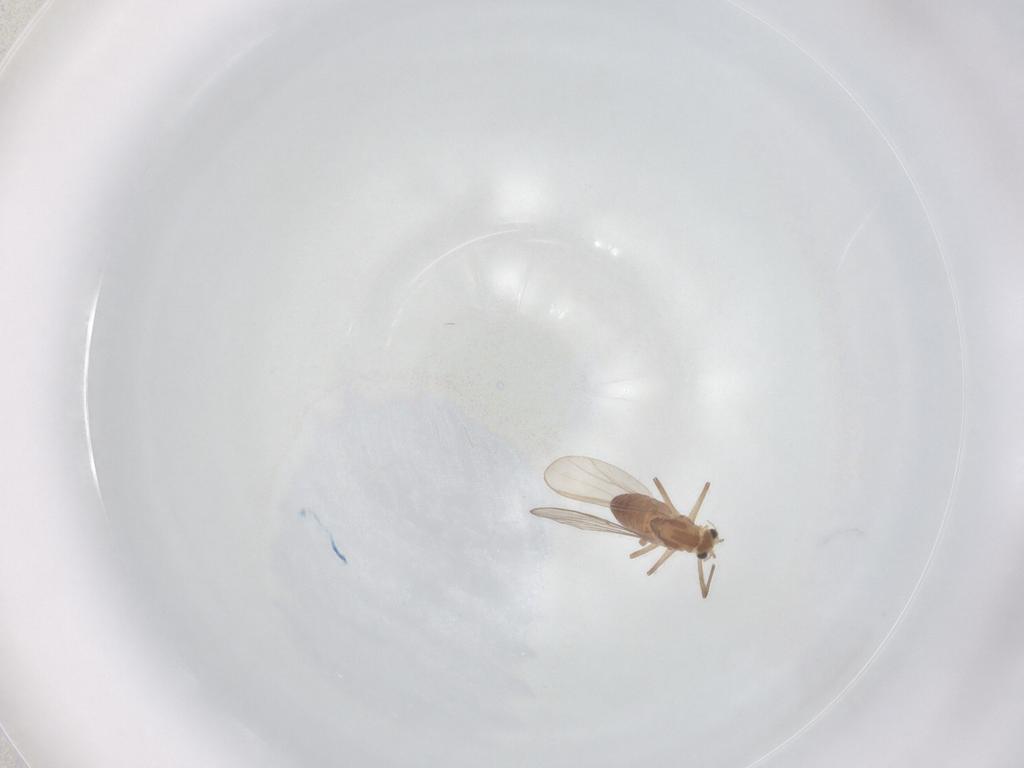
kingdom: Animalia
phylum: Arthropoda
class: Insecta
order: Diptera
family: Chironomidae
